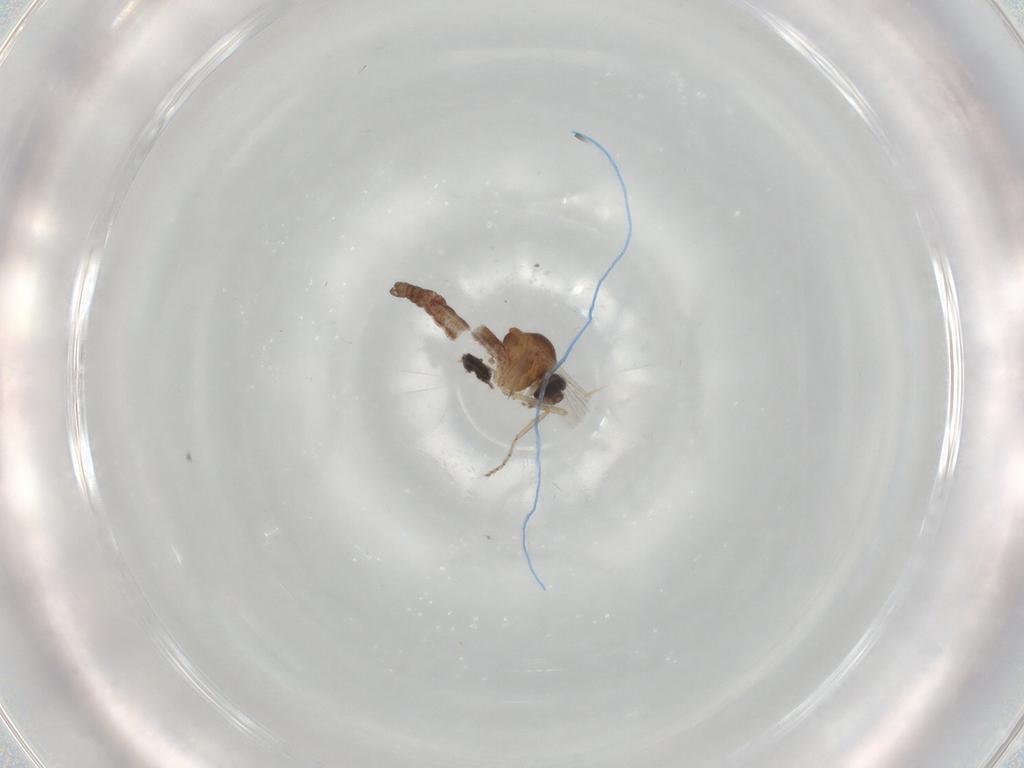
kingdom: Animalia
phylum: Arthropoda
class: Insecta
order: Diptera
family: Ceratopogonidae
